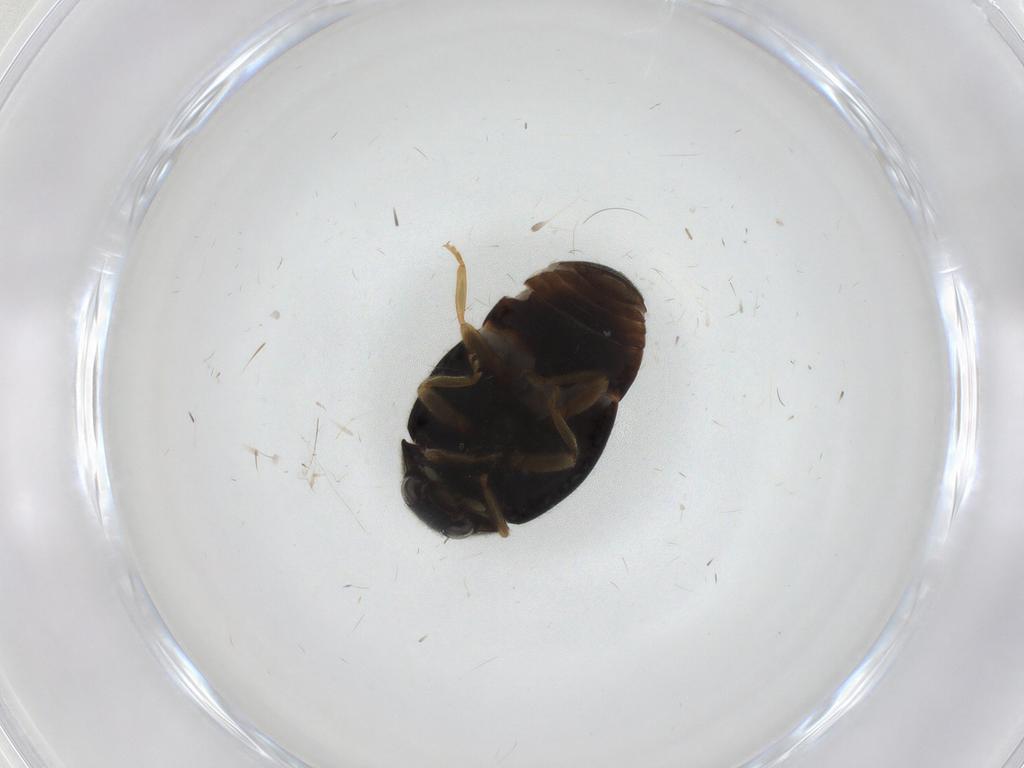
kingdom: Animalia
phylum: Arthropoda
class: Insecta
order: Coleoptera
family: Coccinellidae
